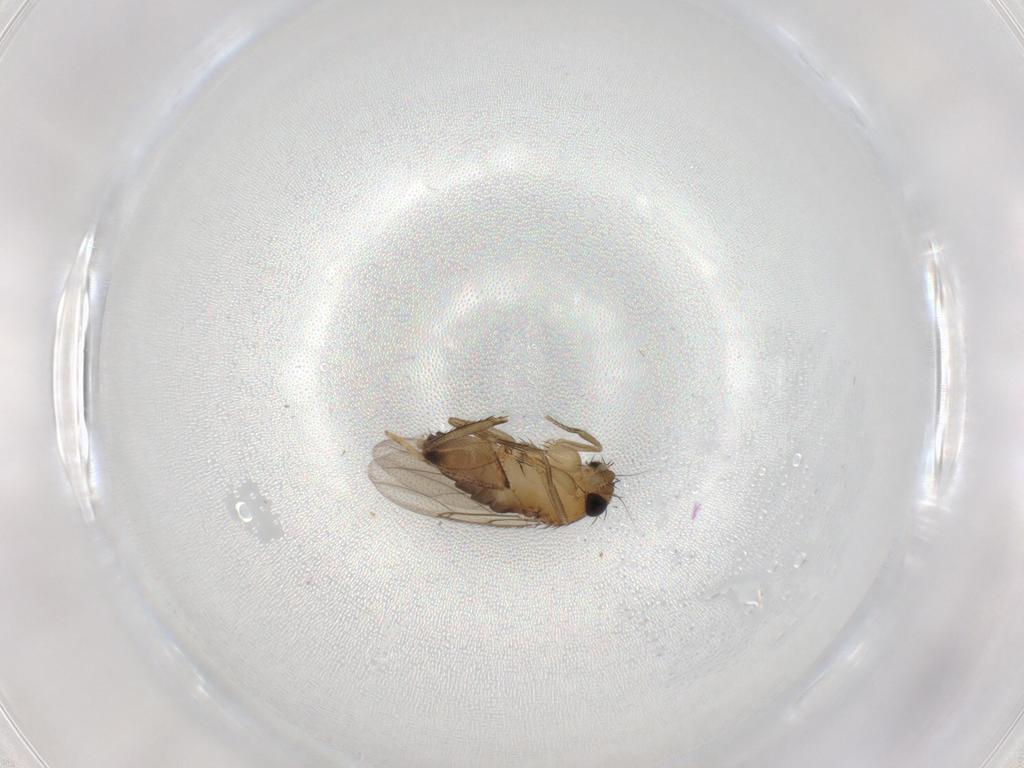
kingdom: Animalia
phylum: Arthropoda
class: Insecta
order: Diptera
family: Phoridae
